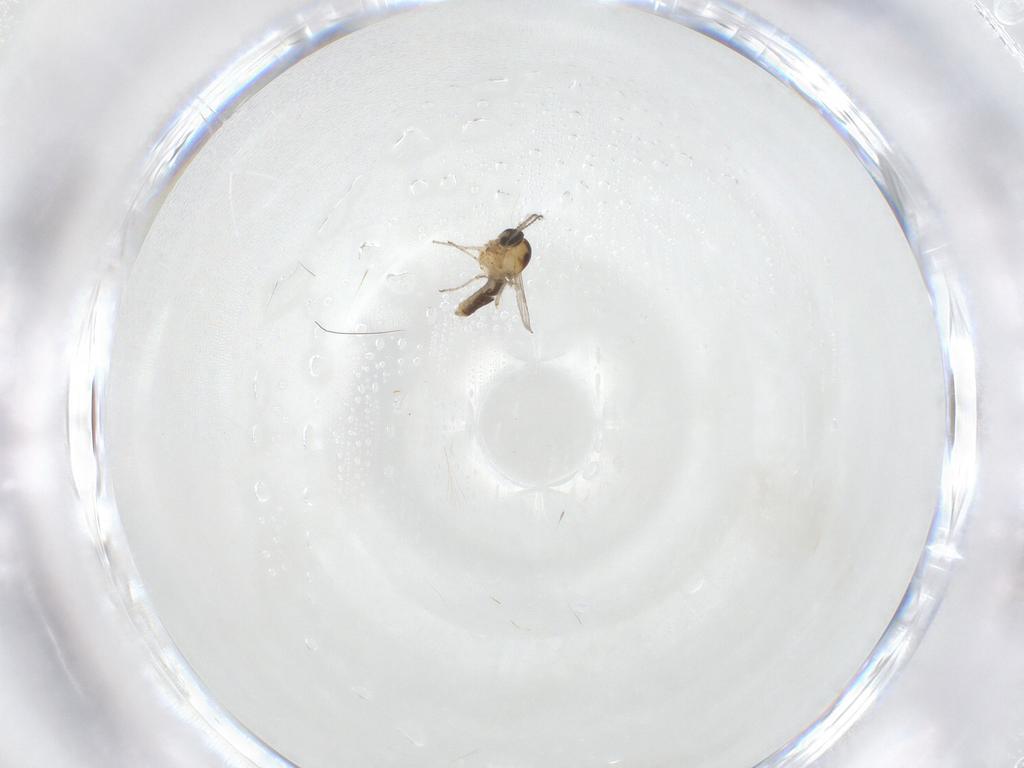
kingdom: Animalia
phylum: Arthropoda
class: Insecta
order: Diptera
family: Ceratopogonidae
